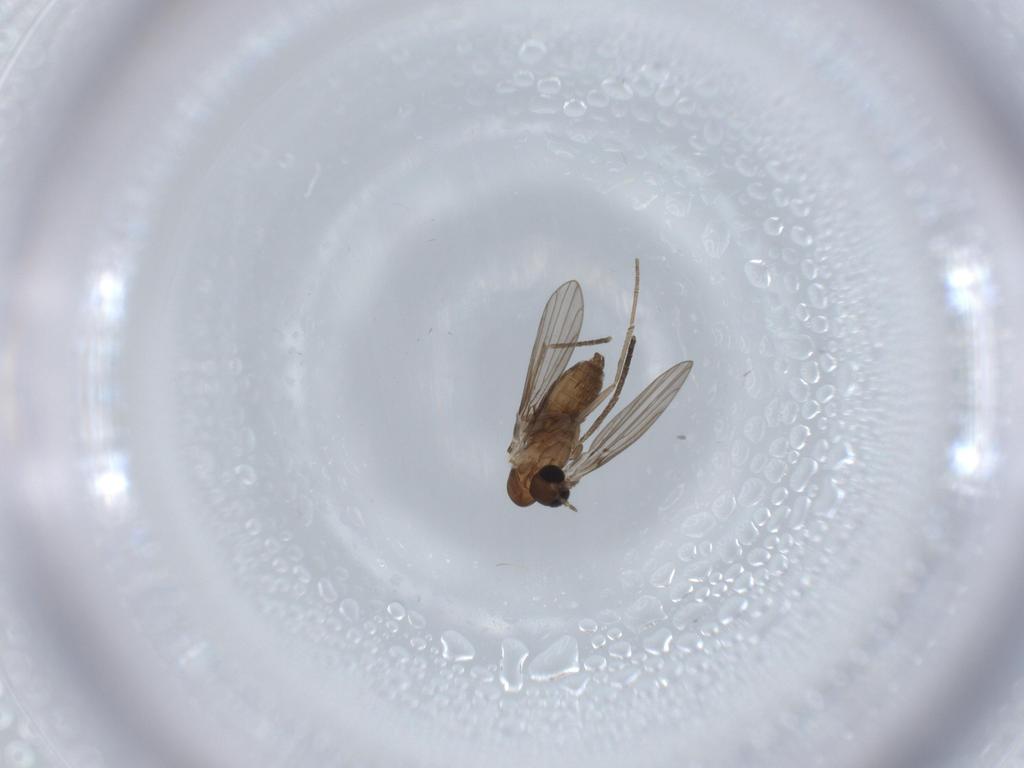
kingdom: Animalia
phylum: Arthropoda
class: Insecta
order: Diptera
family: Psychodidae
